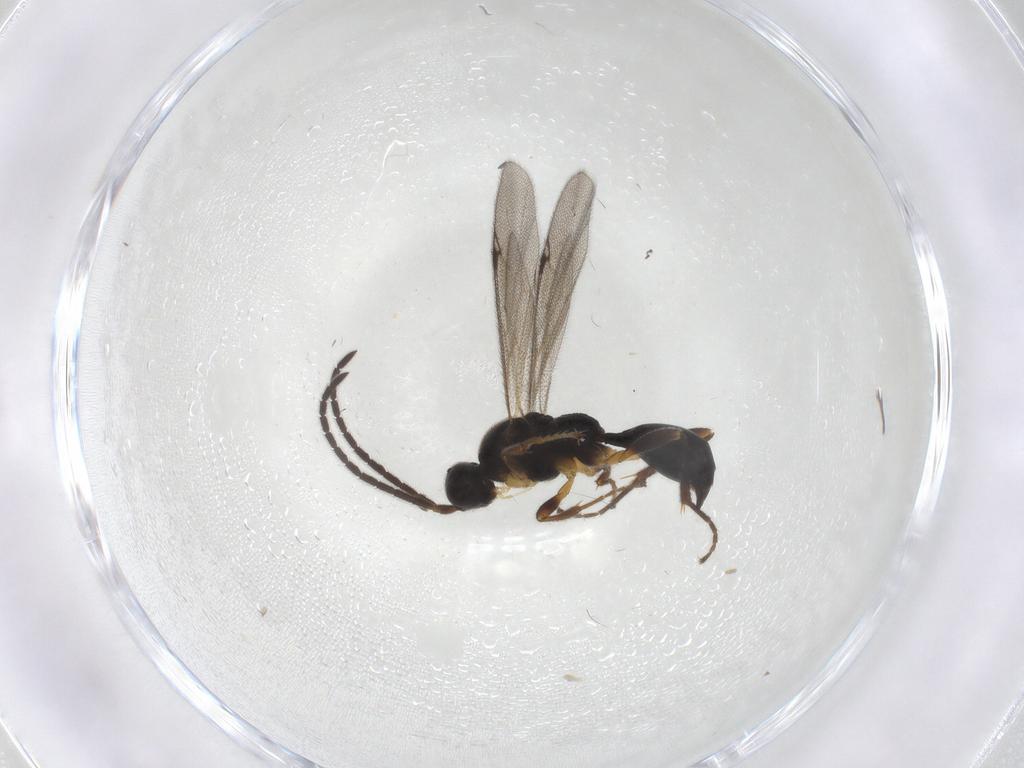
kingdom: Animalia
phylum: Arthropoda
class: Insecta
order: Hymenoptera
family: Proctotrupidae
